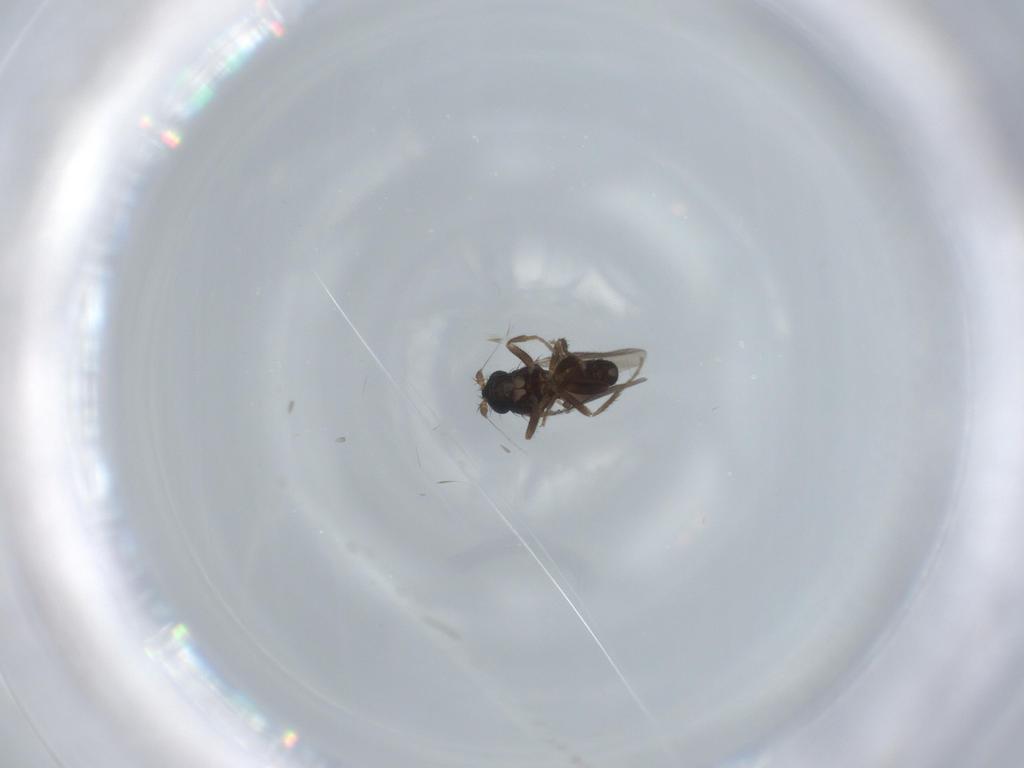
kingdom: Animalia
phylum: Arthropoda
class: Insecta
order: Diptera
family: Sphaeroceridae
